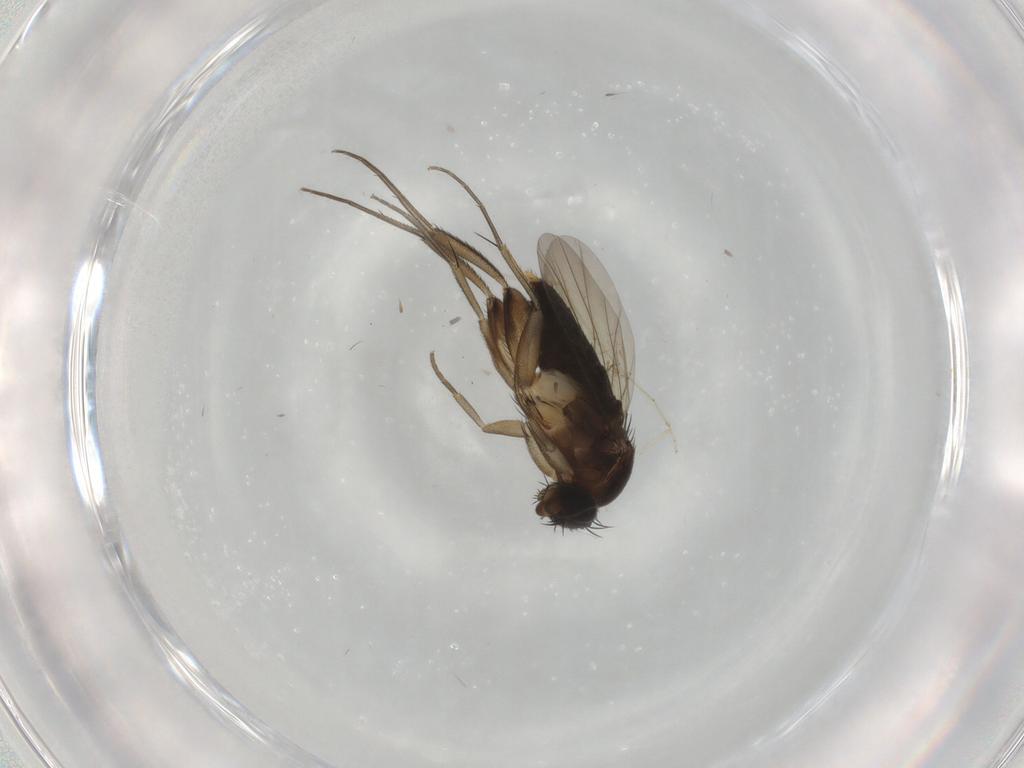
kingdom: Animalia
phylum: Arthropoda
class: Insecta
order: Diptera
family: Phoridae
